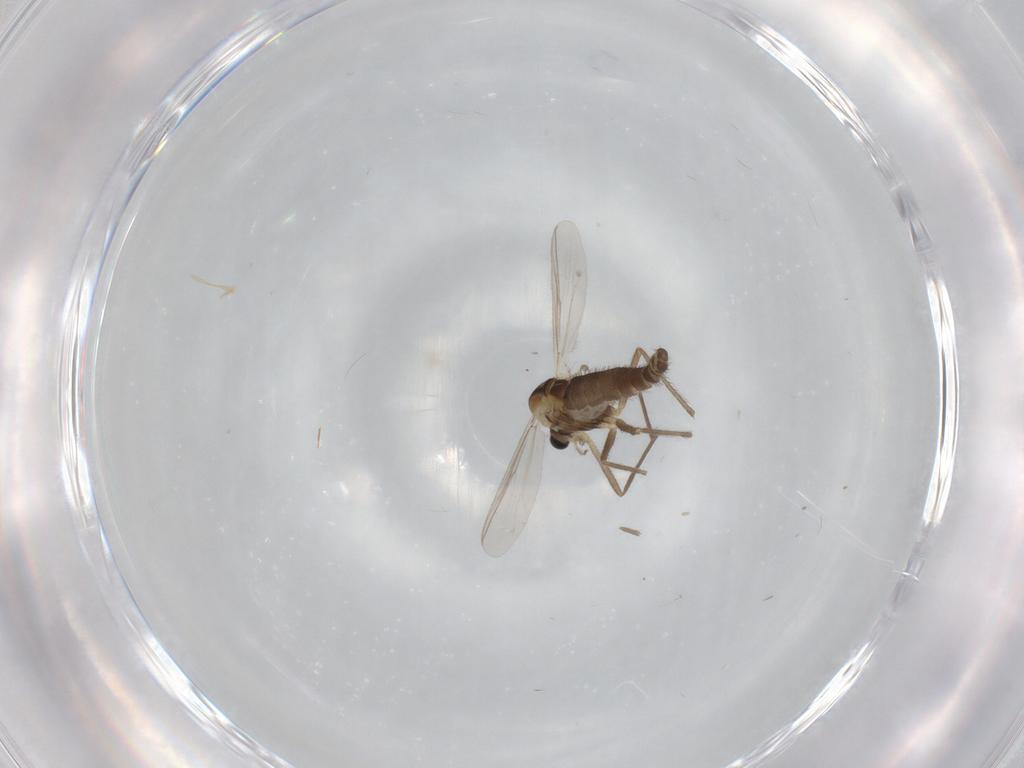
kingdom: Animalia
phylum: Arthropoda
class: Insecta
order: Diptera
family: Chironomidae
